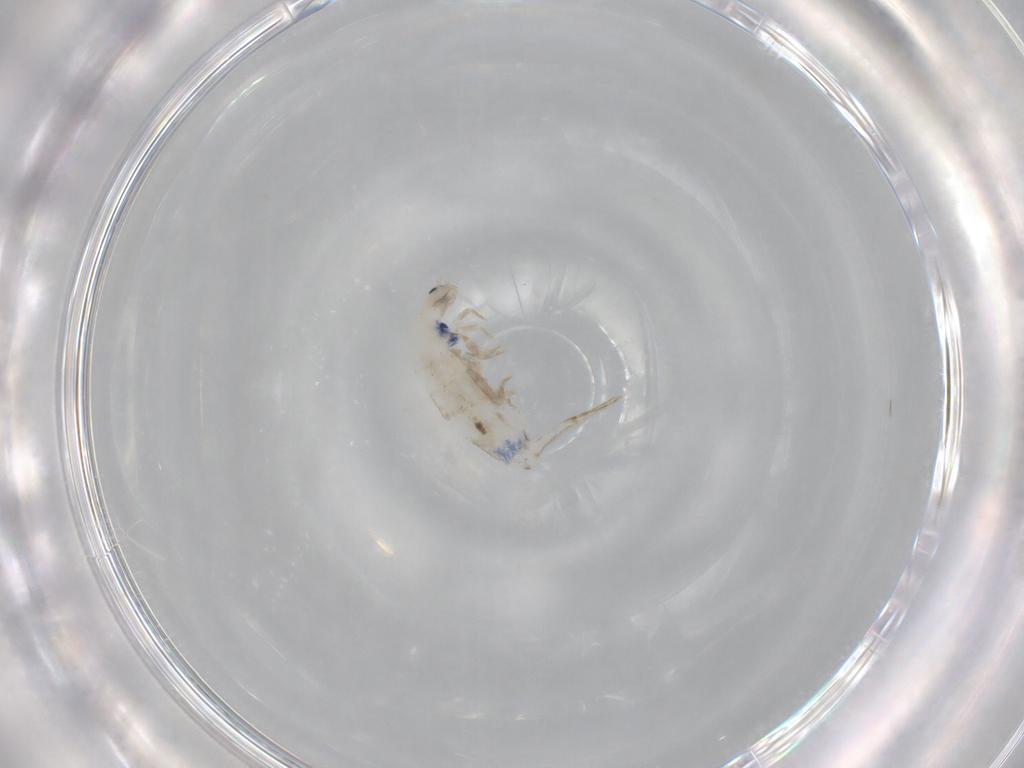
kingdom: Animalia
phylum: Arthropoda
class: Collembola
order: Entomobryomorpha
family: Entomobryidae
